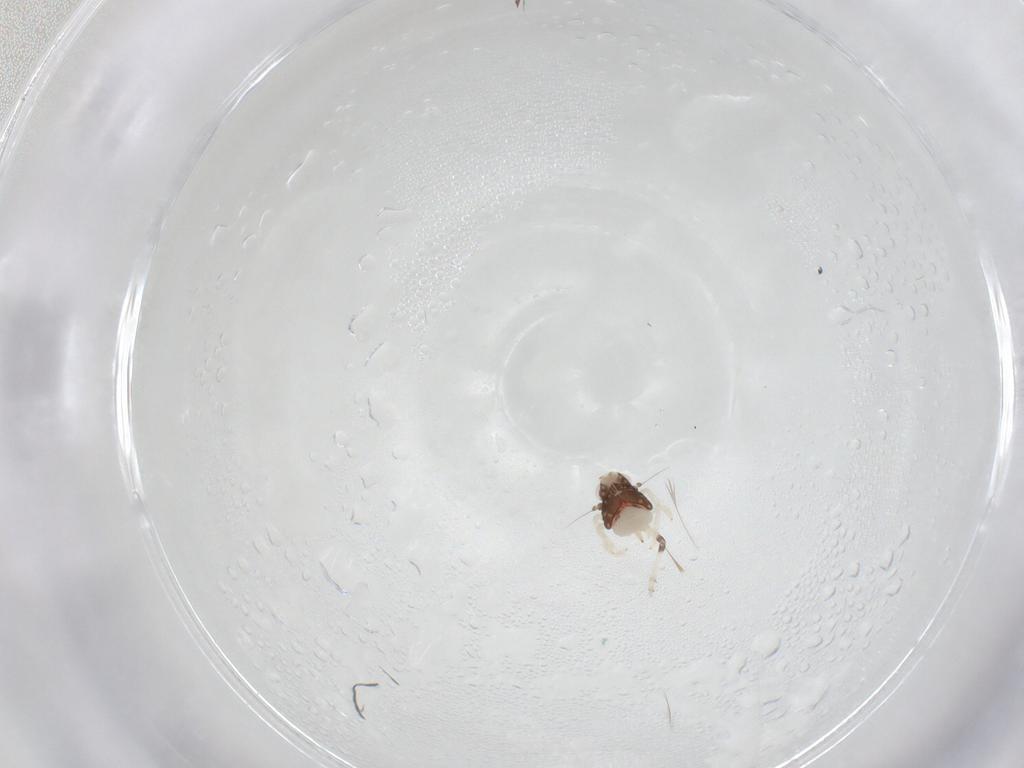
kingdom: Animalia
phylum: Arthropoda
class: Insecta
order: Hemiptera
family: Nogodinidae
